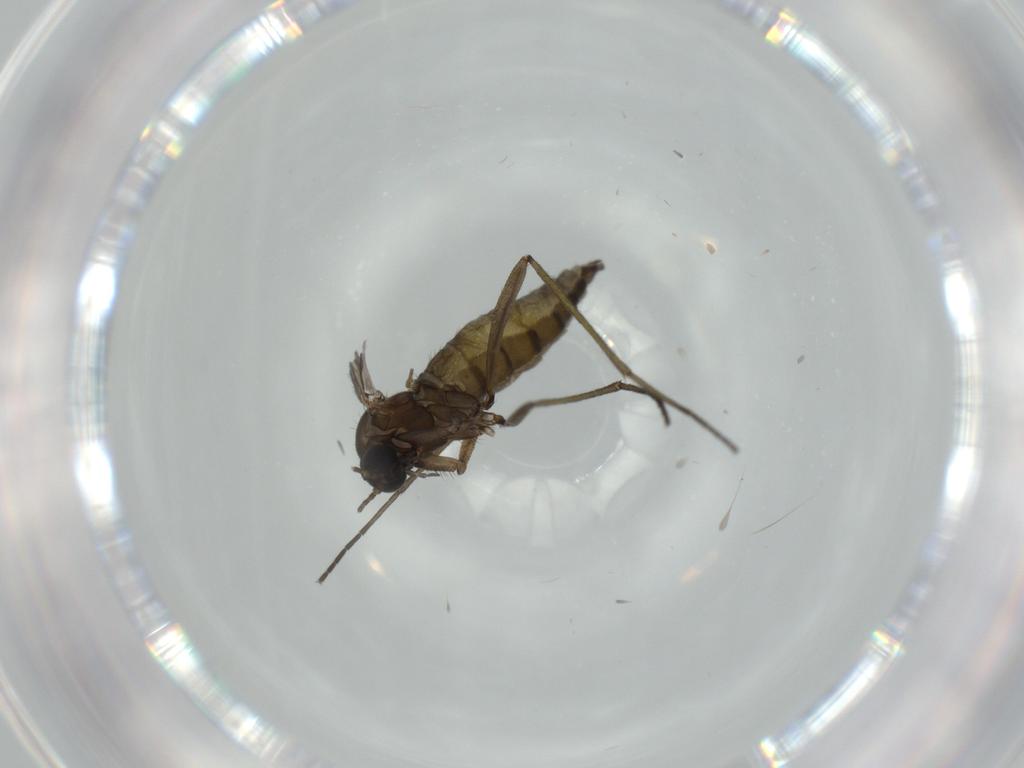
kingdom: Animalia
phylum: Arthropoda
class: Insecta
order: Diptera
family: Sciaridae
